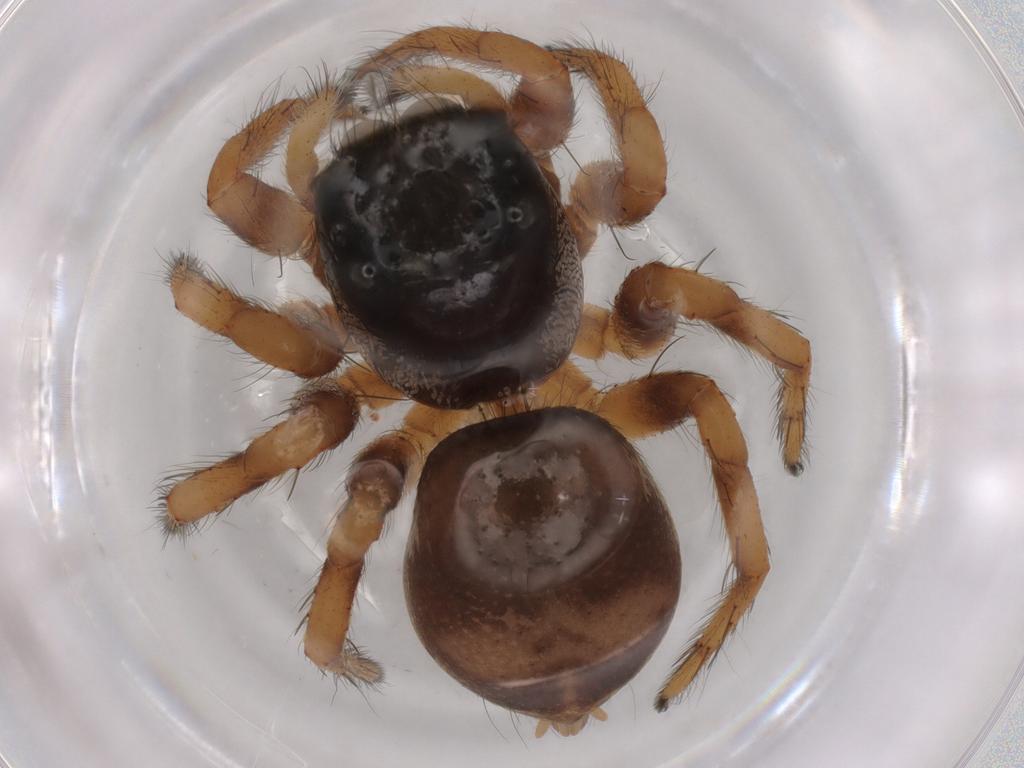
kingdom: Animalia
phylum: Arthropoda
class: Arachnida
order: Araneae
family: Salticidae
